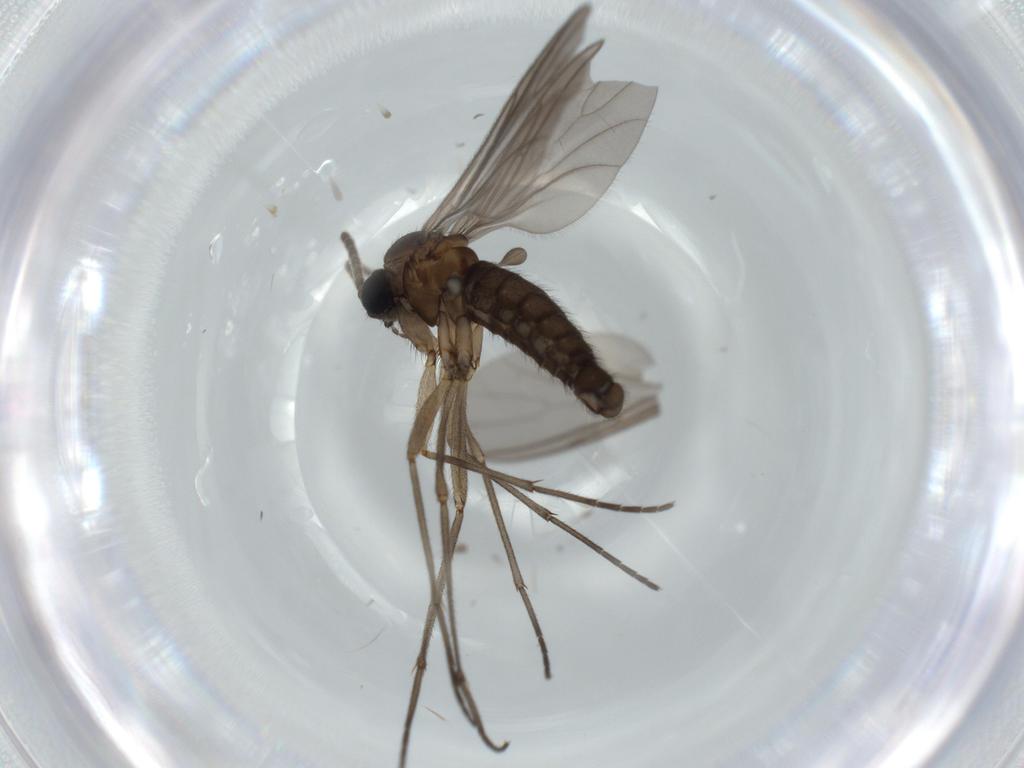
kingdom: Animalia
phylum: Arthropoda
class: Insecta
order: Diptera
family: Sciaridae
